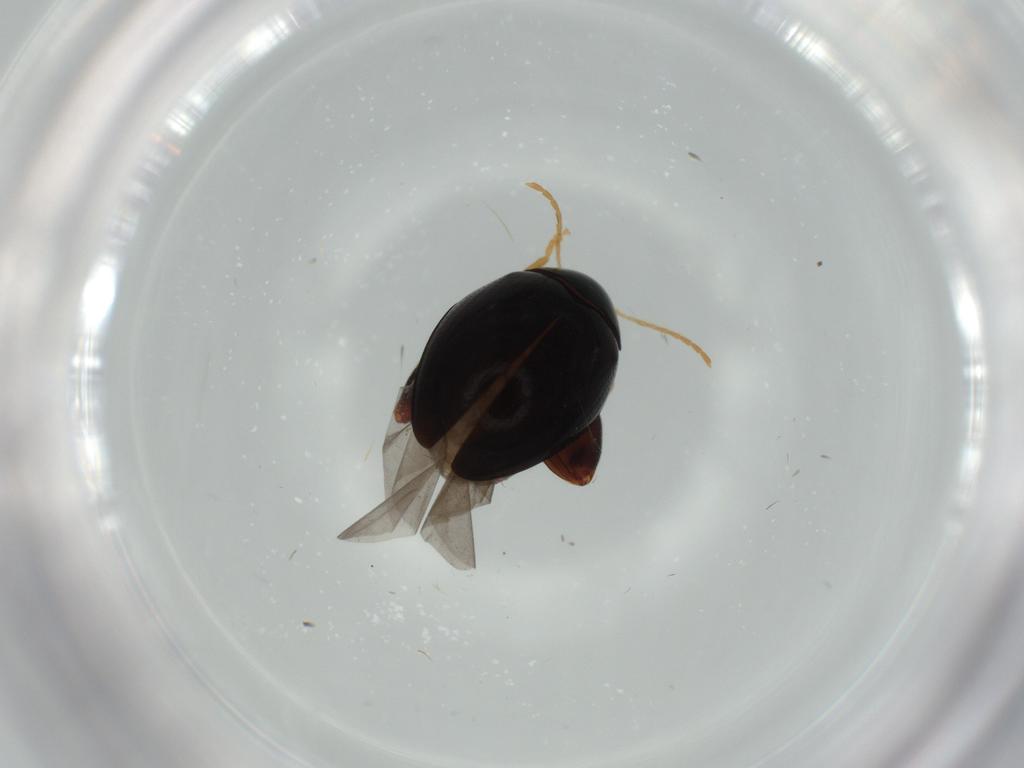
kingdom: Animalia
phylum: Arthropoda
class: Insecta
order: Coleoptera
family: Chrysomelidae
